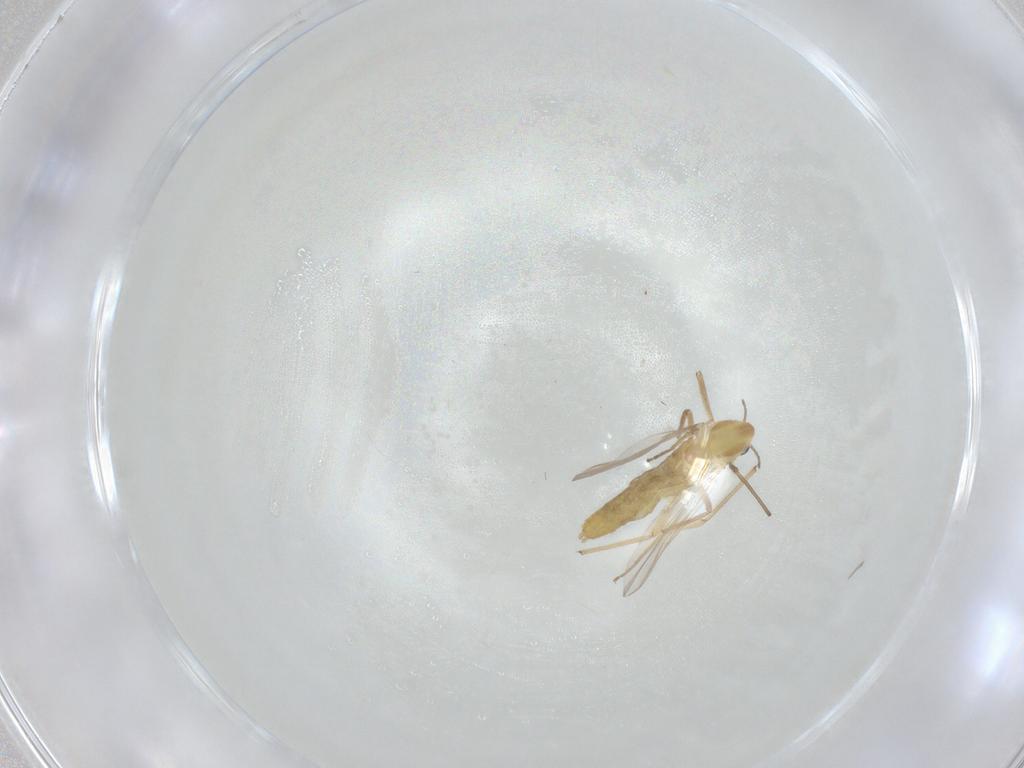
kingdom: Animalia
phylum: Arthropoda
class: Insecta
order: Diptera
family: Chironomidae
